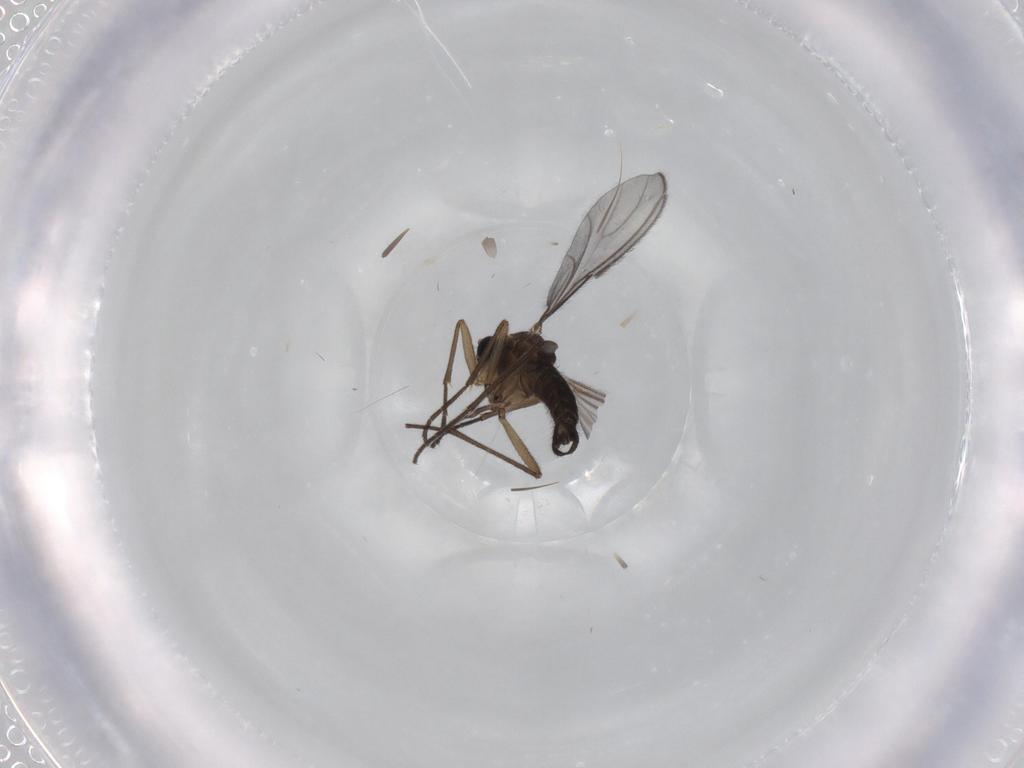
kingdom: Animalia
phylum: Arthropoda
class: Insecta
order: Diptera
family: Sciaridae
